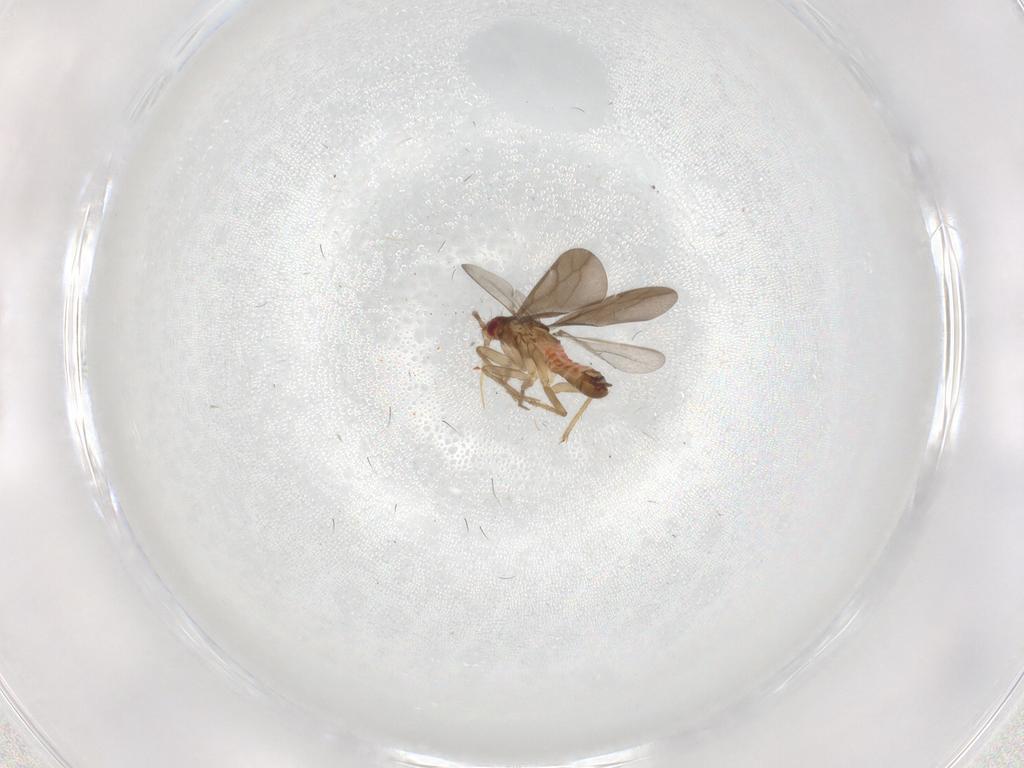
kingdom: Animalia
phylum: Arthropoda
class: Insecta
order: Hemiptera
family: Ceratocombidae
